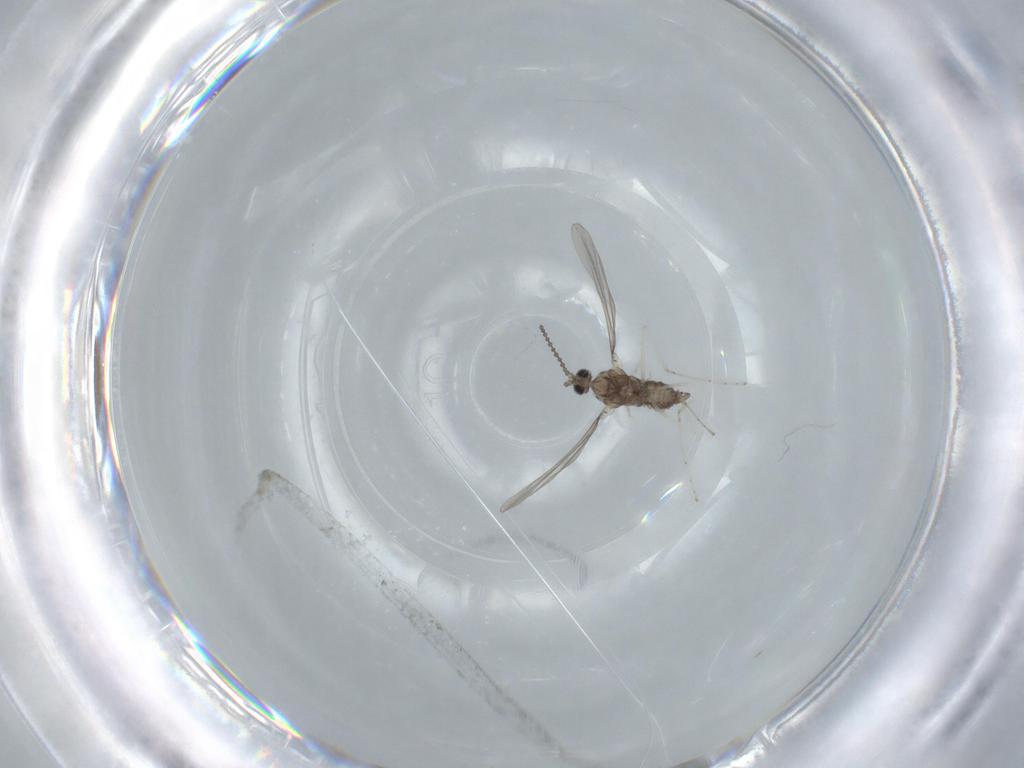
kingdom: Animalia
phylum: Arthropoda
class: Insecta
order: Diptera
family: Cecidomyiidae
